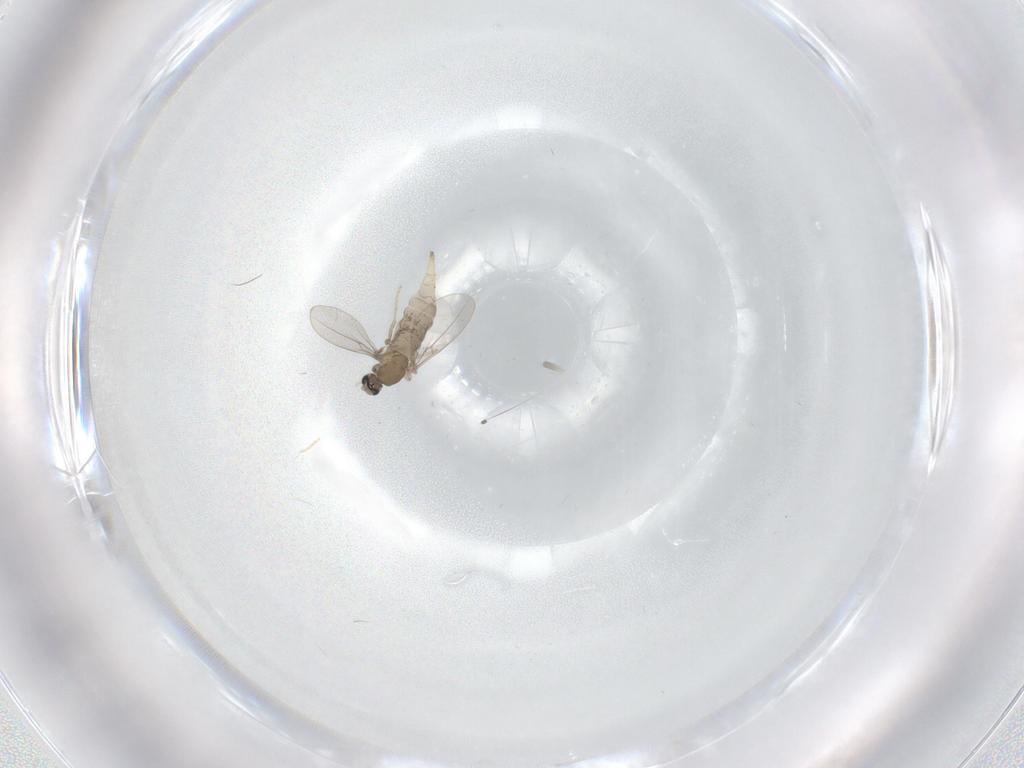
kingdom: Animalia
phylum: Arthropoda
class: Insecta
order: Diptera
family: Cecidomyiidae
